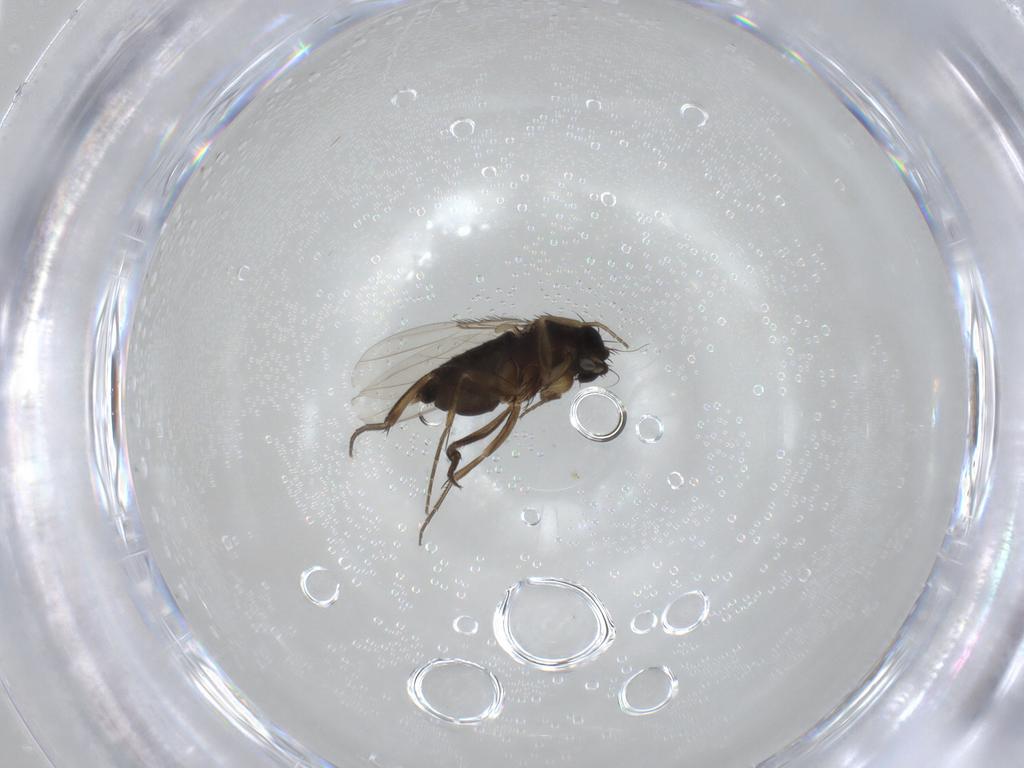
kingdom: Animalia
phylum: Arthropoda
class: Insecta
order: Diptera
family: Phoridae
